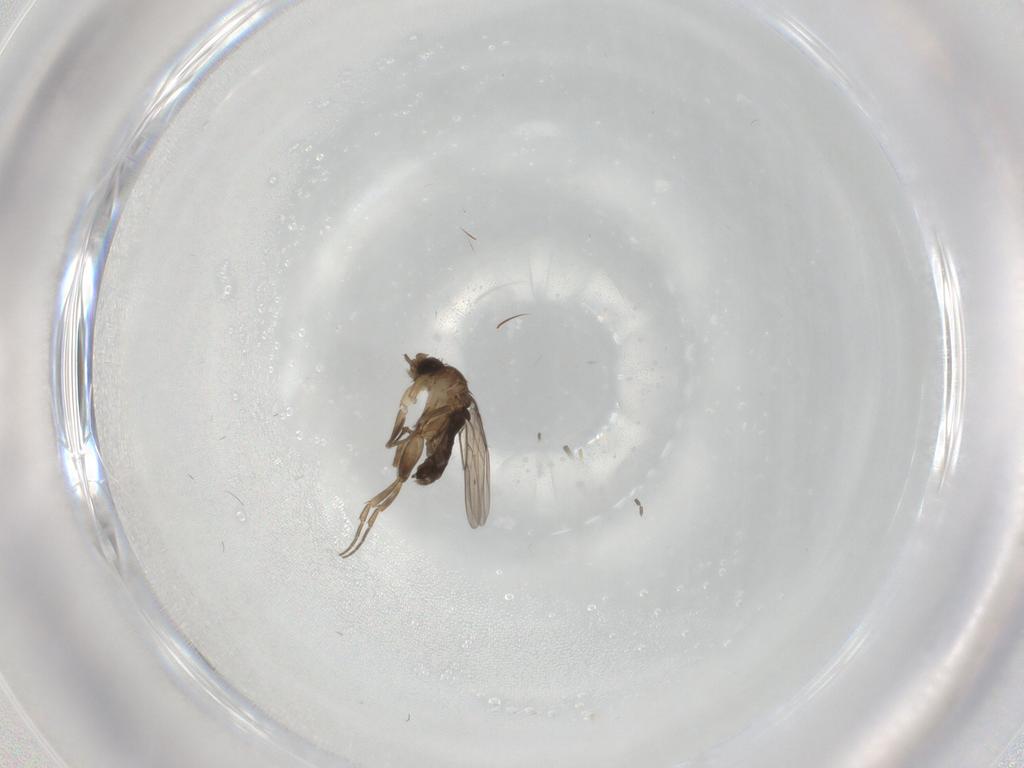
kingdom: Animalia
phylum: Arthropoda
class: Insecta
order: Diptera
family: Phoridae
